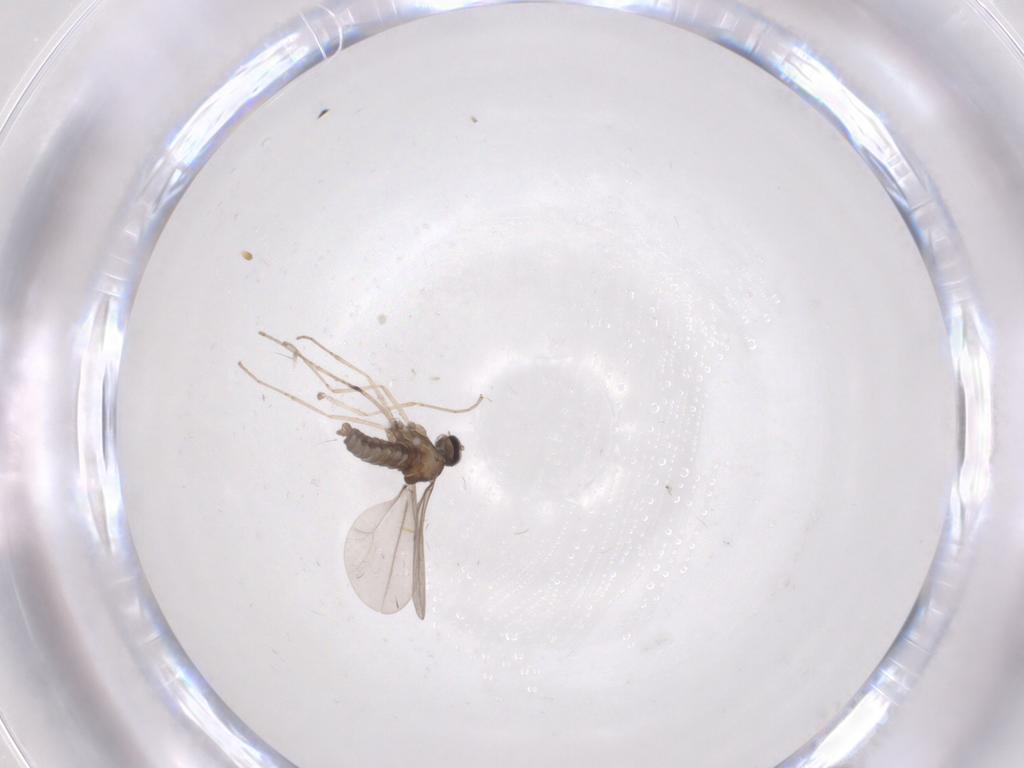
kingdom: Animalia
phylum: Arthropoda
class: Insecta
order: Diptera
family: Cecidomyiidae
